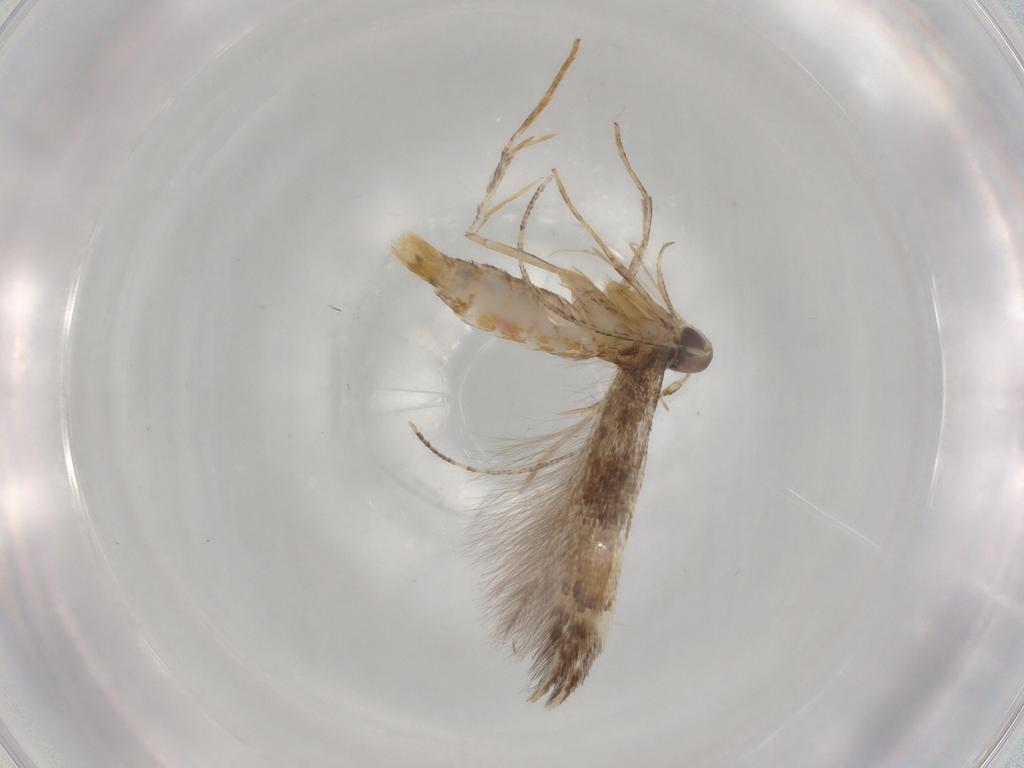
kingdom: Animalia
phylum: Arthropoda
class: Insecta
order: Lepidoptera
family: Cosmopterigidae
